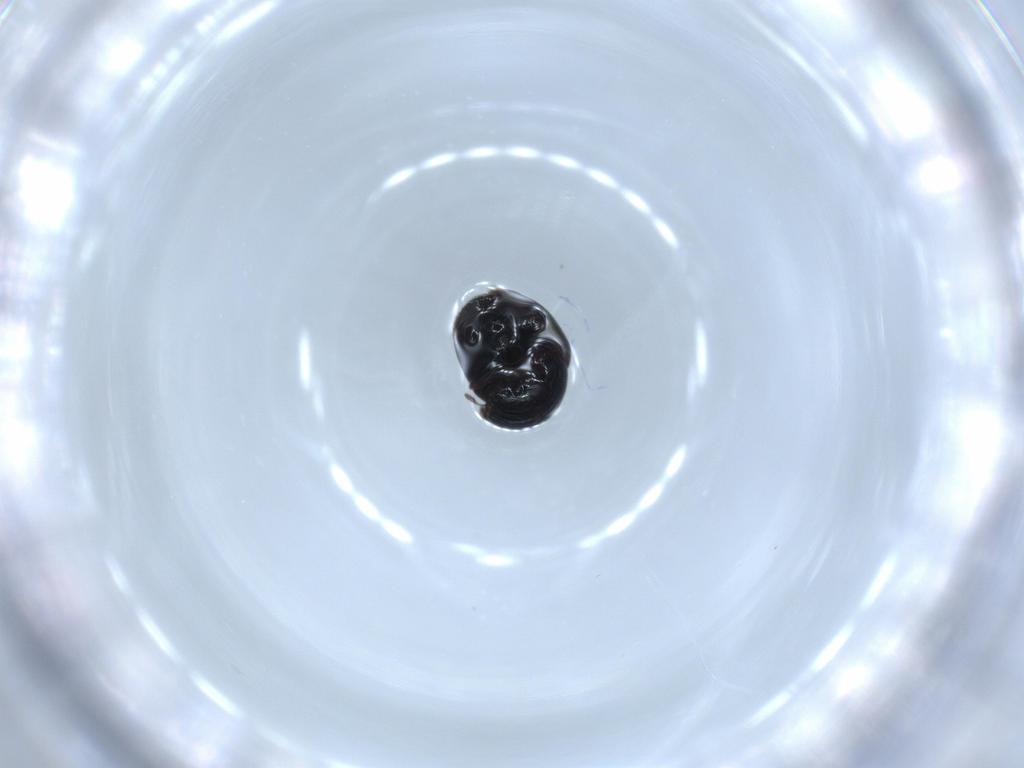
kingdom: Animalia
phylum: Arthropoda
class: Insecta
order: Coleoptera
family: Cybocephalidae
